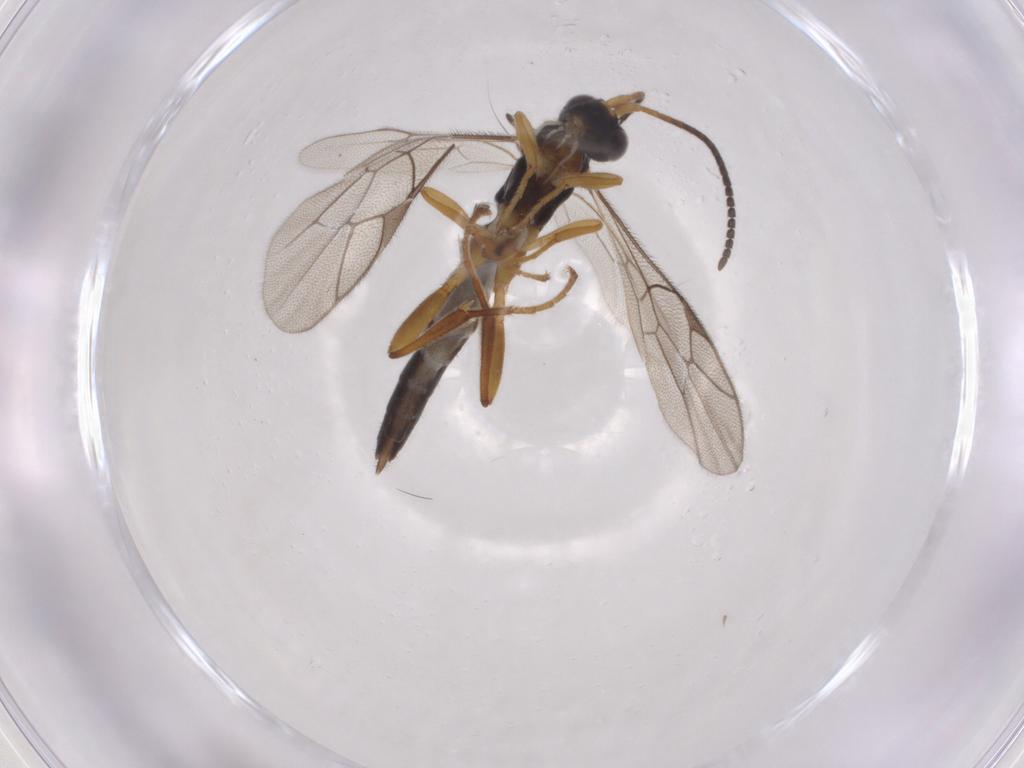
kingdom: Animalia
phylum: Arthropoda
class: Insecta
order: Hymenoptera
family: Ichneumonidae
